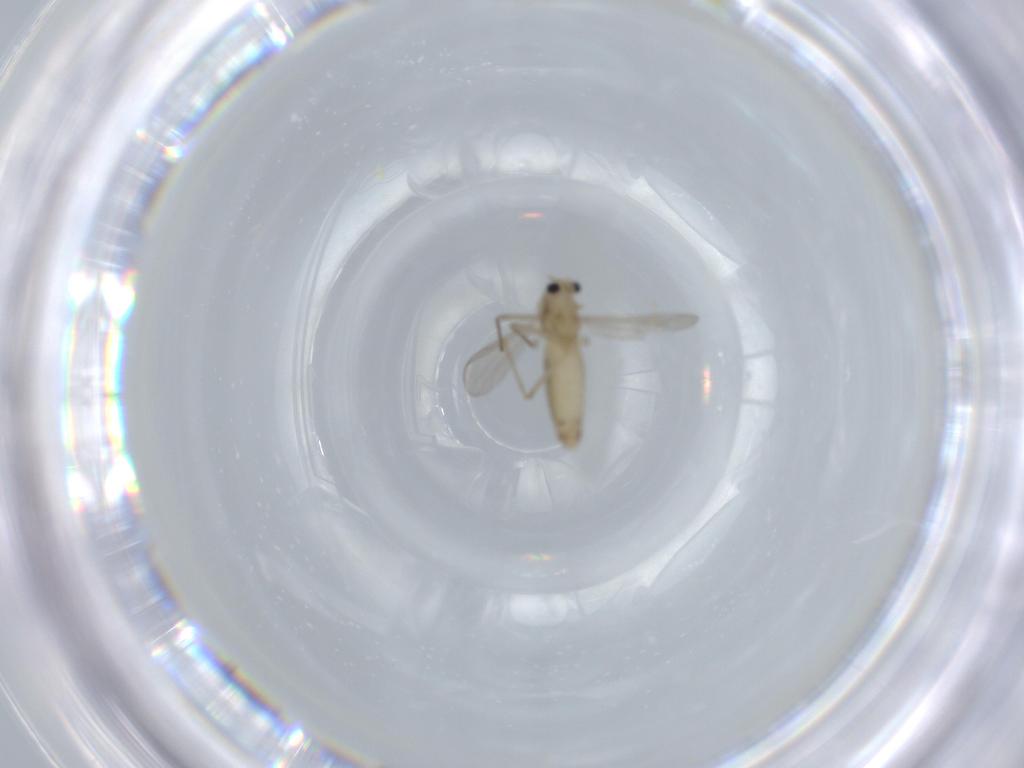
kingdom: Animalia
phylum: Arthropoda
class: Insecta
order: Diptera
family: Chironomidae
